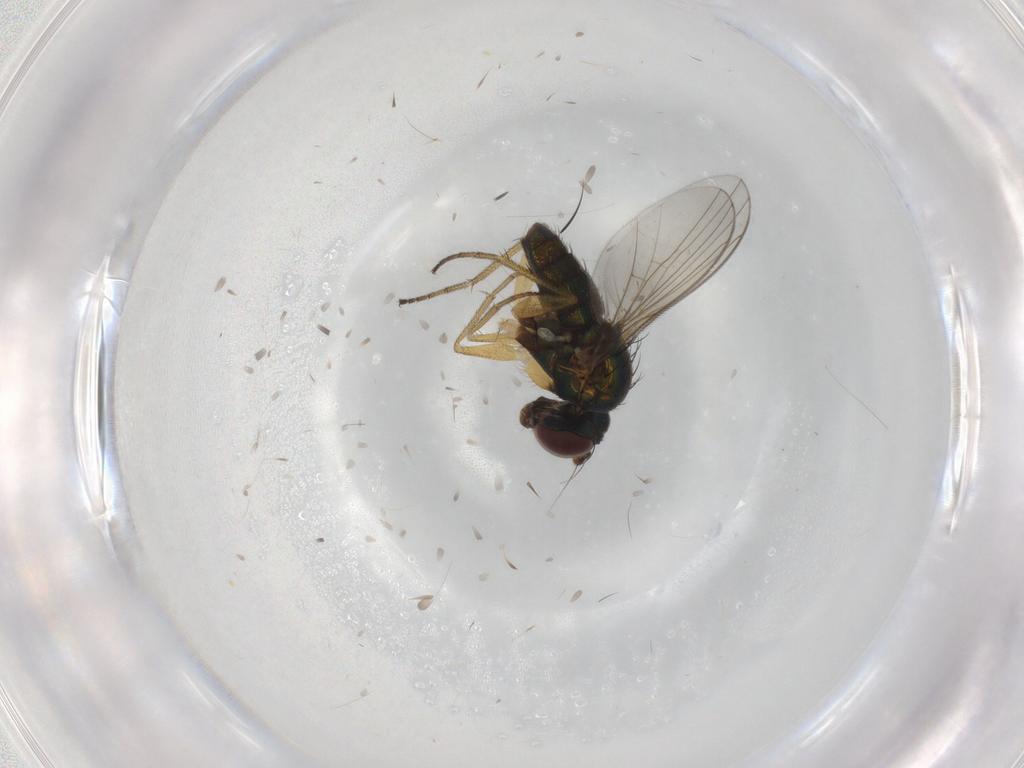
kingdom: Animalia
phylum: Arthropoda
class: Insecta
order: Diptera
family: Dolichopodidae
